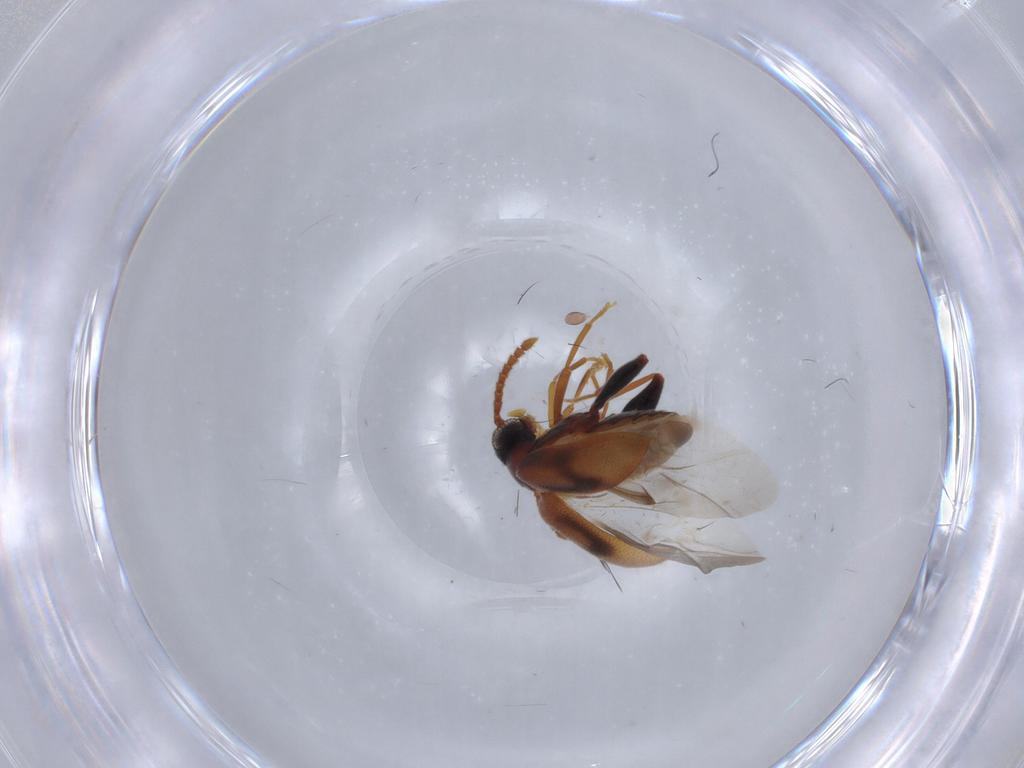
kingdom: Animalia
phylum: Arthropoda
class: Insecta
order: Coleoptera
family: Aderidae
